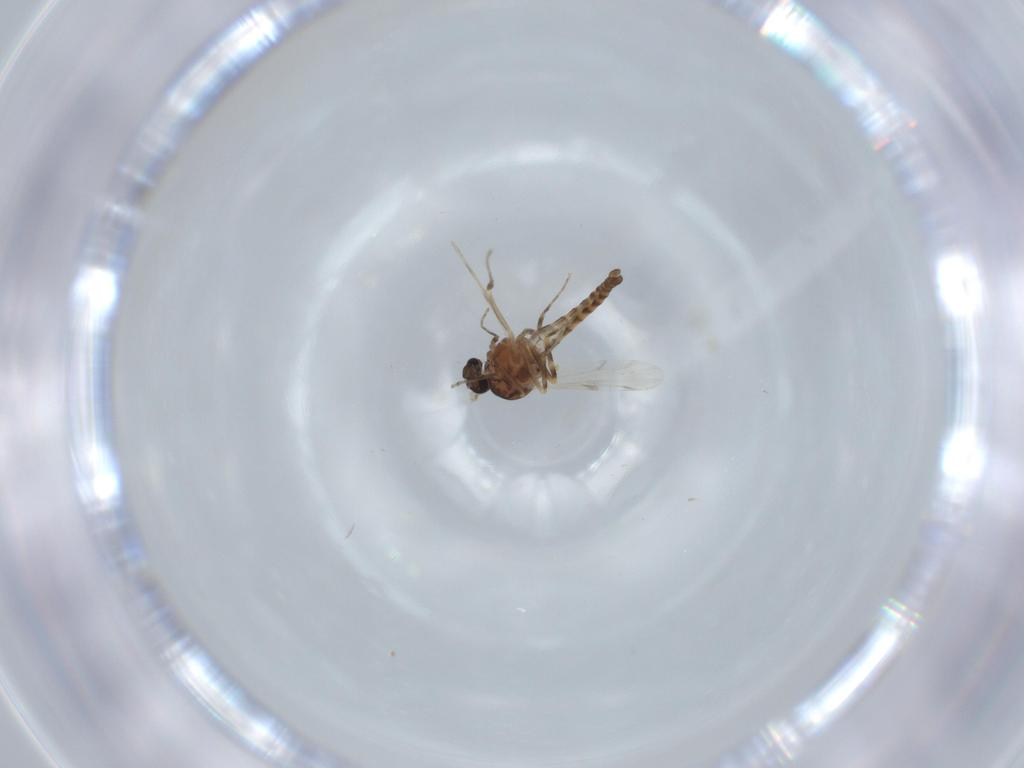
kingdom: Animalia
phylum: Arthropoda
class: Insecta
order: Diptera
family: Ceratopogonidae
